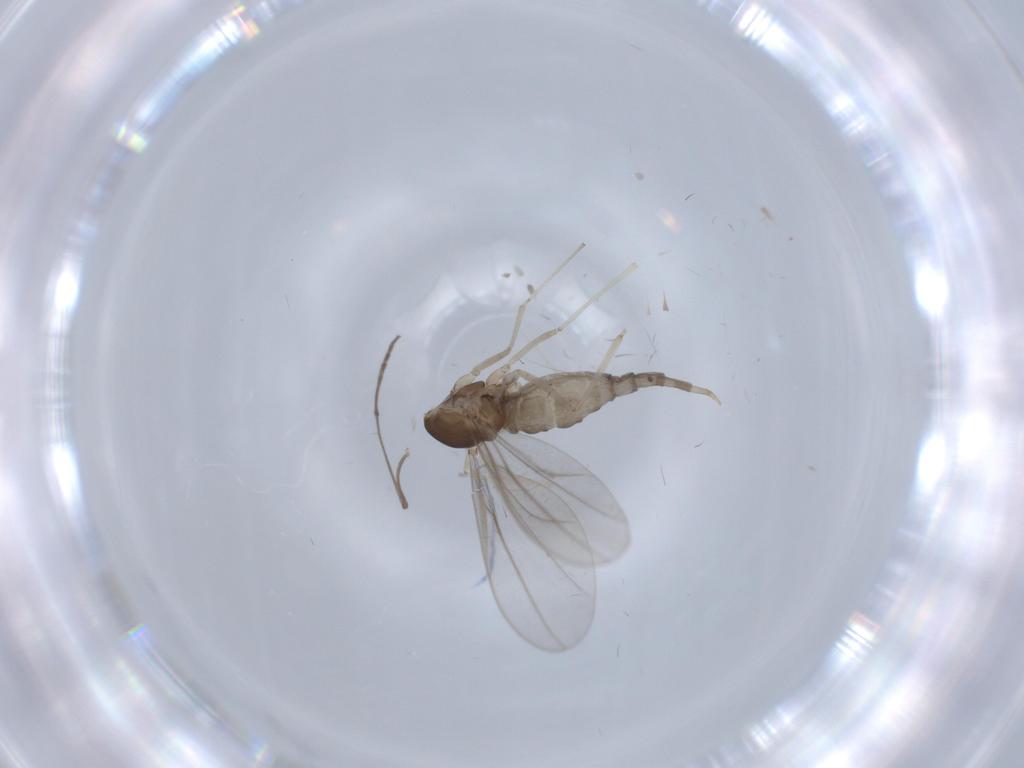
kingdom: Animalia
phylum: Arthropoda
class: Insecta
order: Diptera
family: Cecidomyiidae
